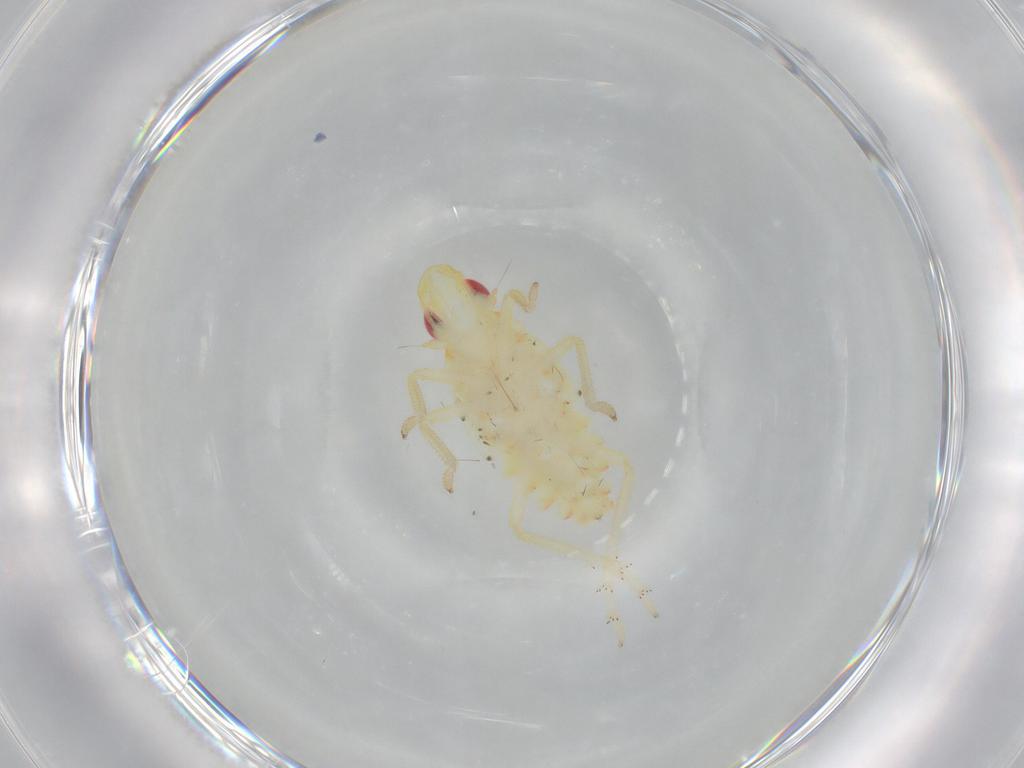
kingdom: Animalia
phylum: Arthropoda
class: Insecta
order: Hemiptera
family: Tropiduchidae
